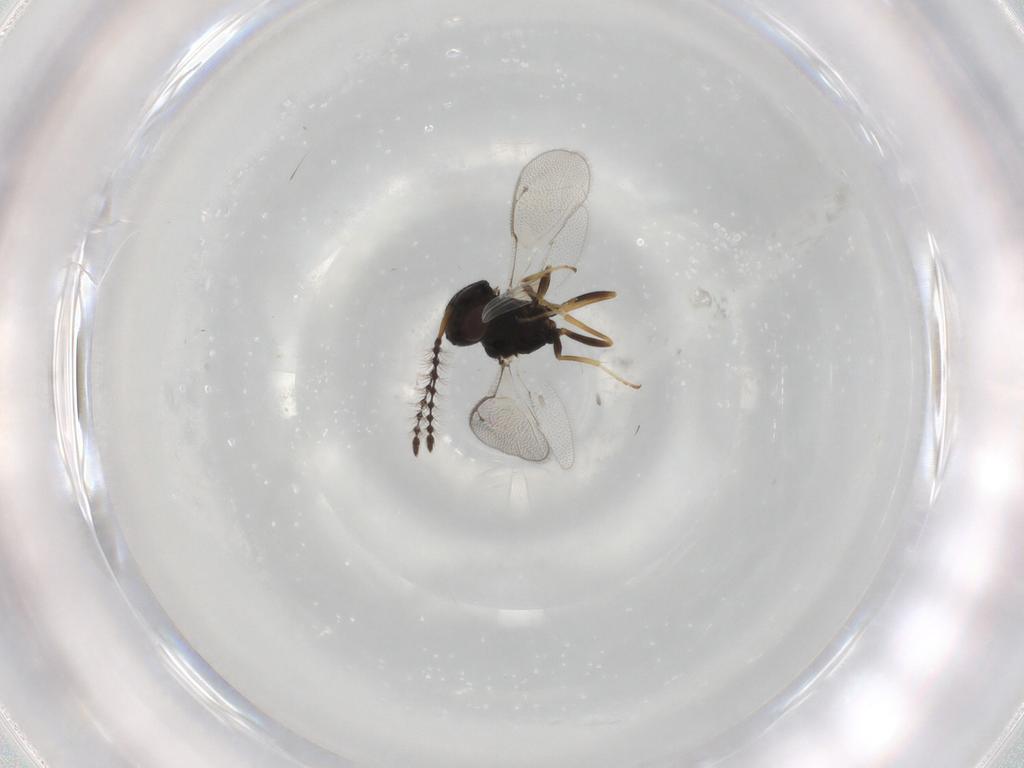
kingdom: Animalia
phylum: Arthropoda
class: Insecta
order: Hymenoptera
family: Pteromalidae
